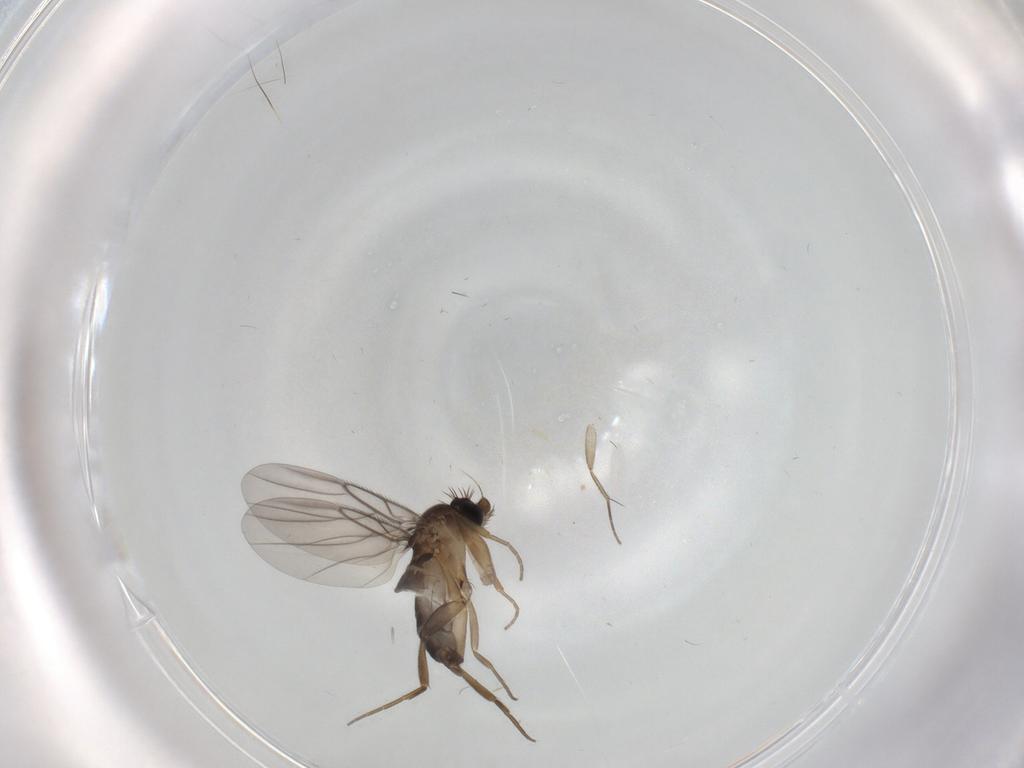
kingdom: Animalia
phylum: Arthropoda
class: Insecta
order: Diptera
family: Phoridae
